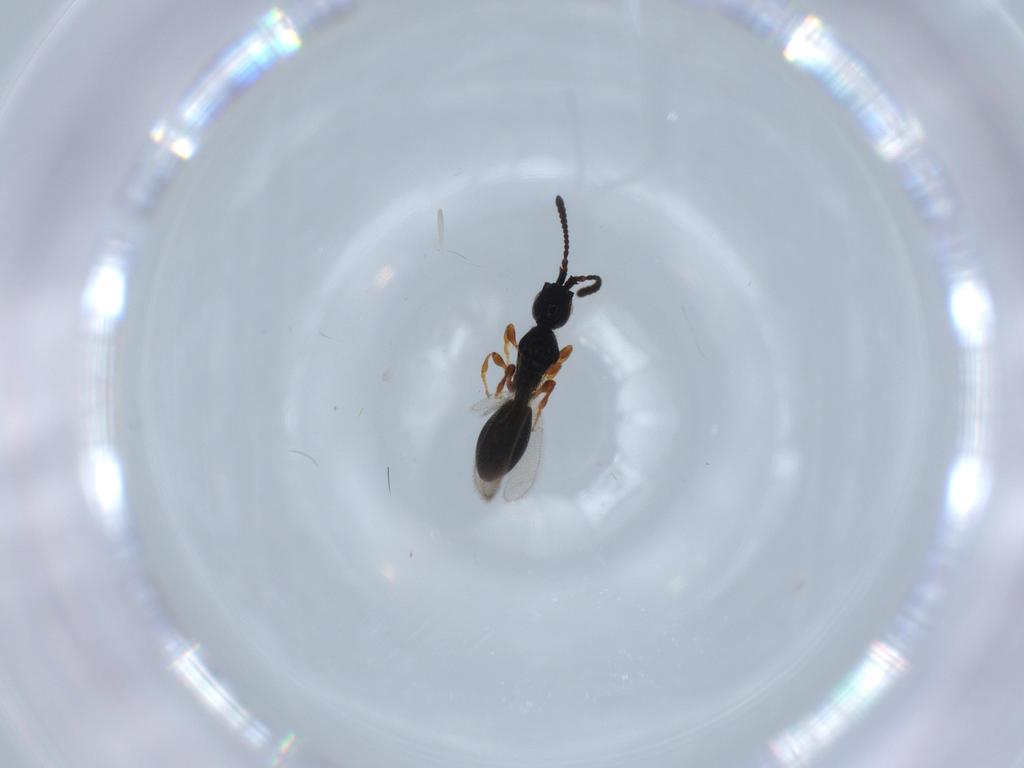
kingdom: Animalia
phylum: Arthropoda
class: Insecta
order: Hymenoptera
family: Diapriidae
